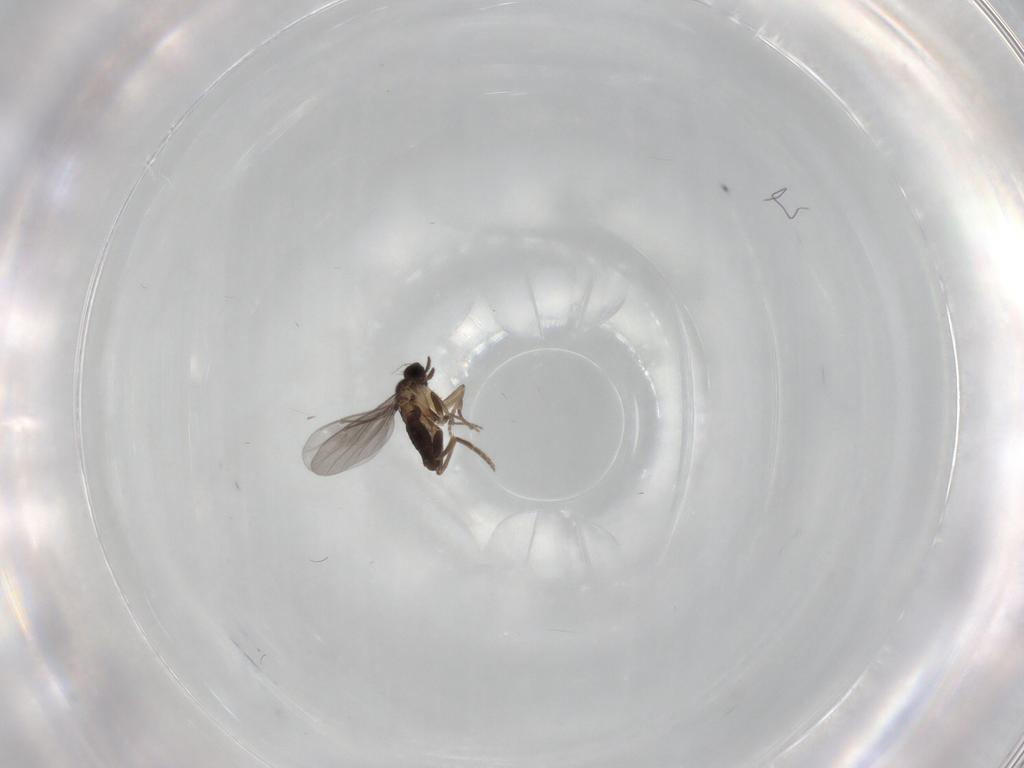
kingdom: Animalia
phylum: Arthropoda
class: Insecta
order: Diptera
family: Dolichopodidae
